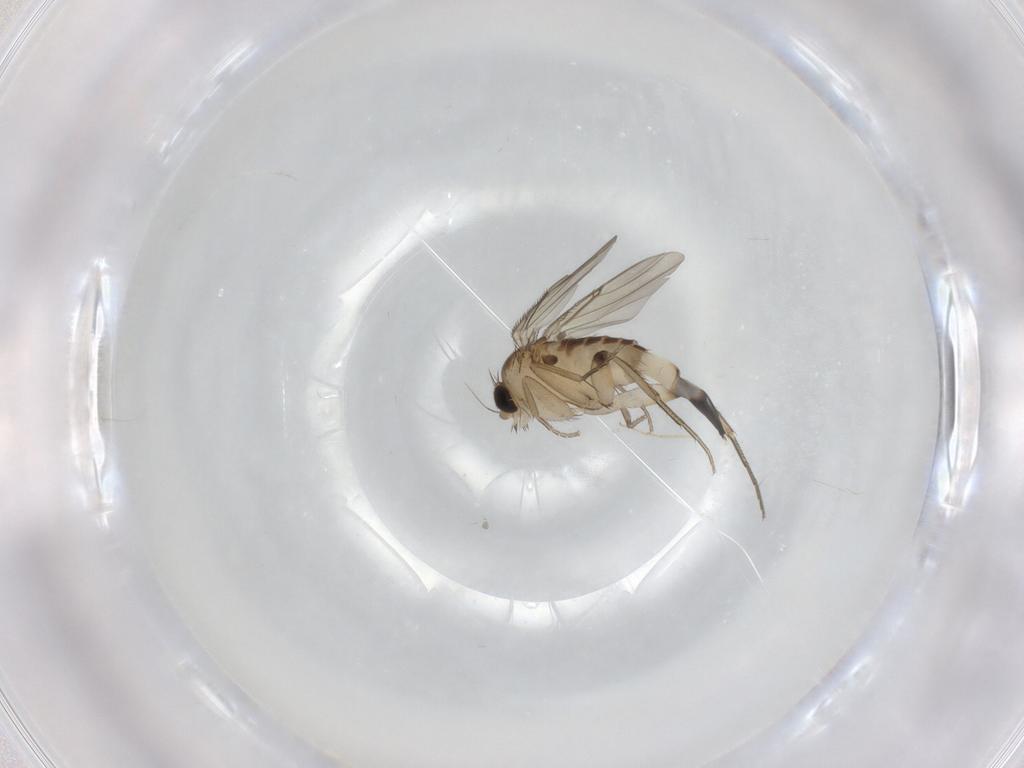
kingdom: Animalia
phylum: Arthropoda
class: Insecta
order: Diptera
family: Phoridae
